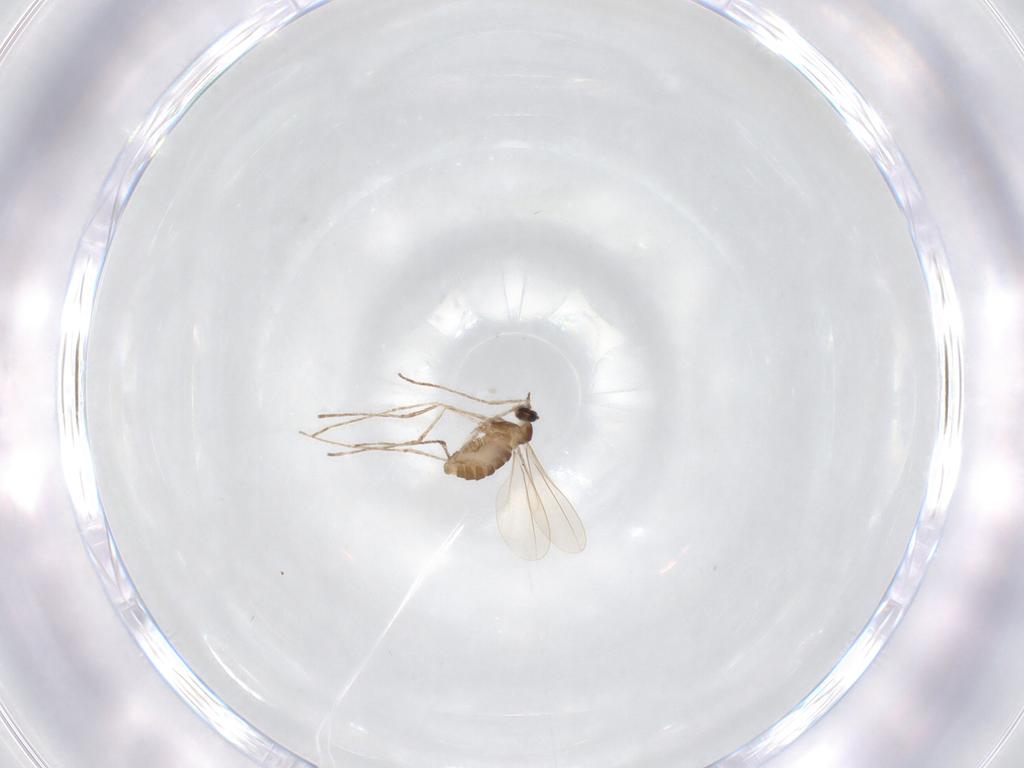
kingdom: Animalia
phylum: Arthropoda
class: Insecta
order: Diptera
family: Cecidomyiidae
